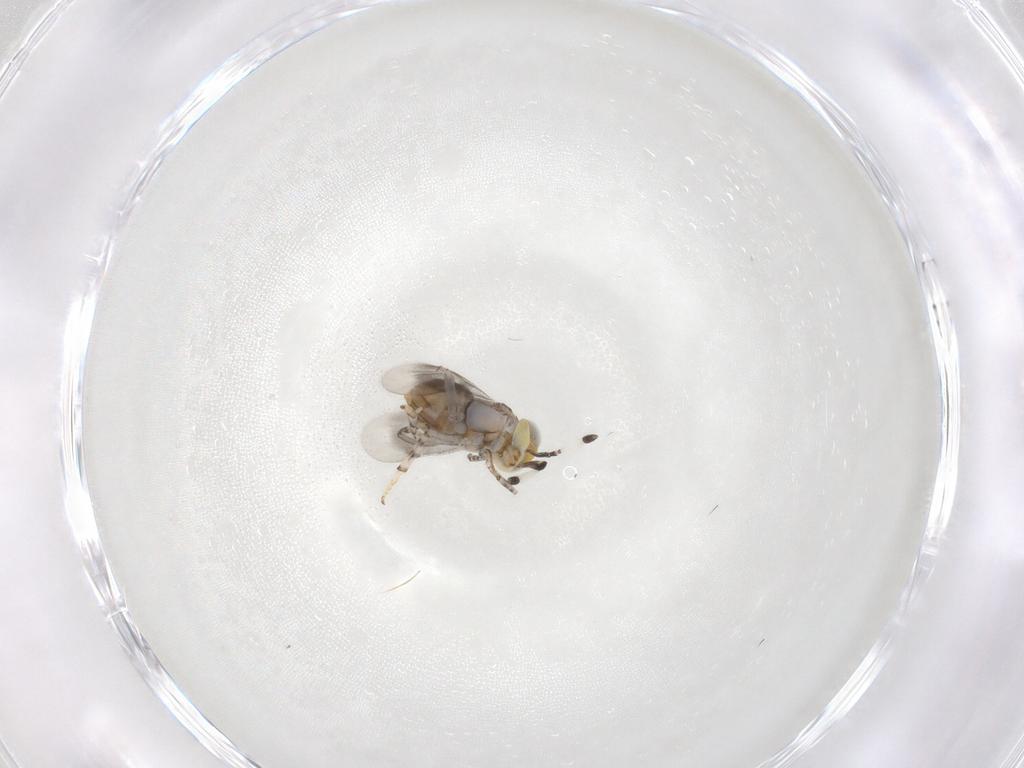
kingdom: Animalia
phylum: Arthropoda
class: Insecta
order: Hymenoptera
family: Encyrtidae
